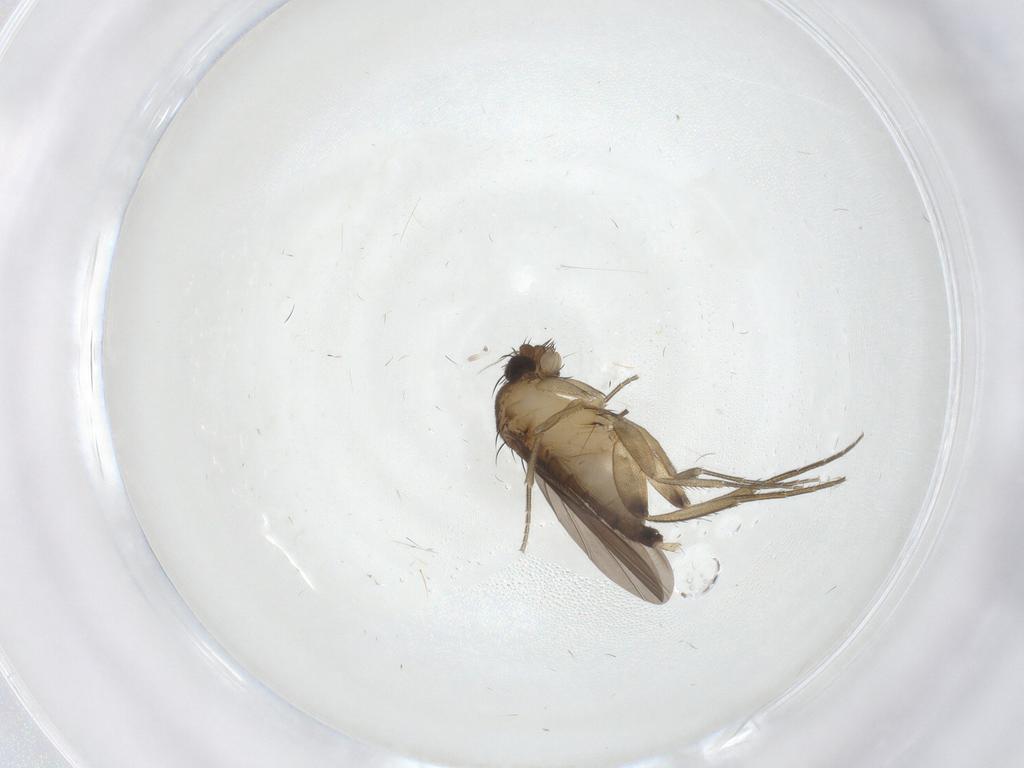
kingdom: Animalia
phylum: Arthropoda
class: Insecta
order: Diptera
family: Phoridae
